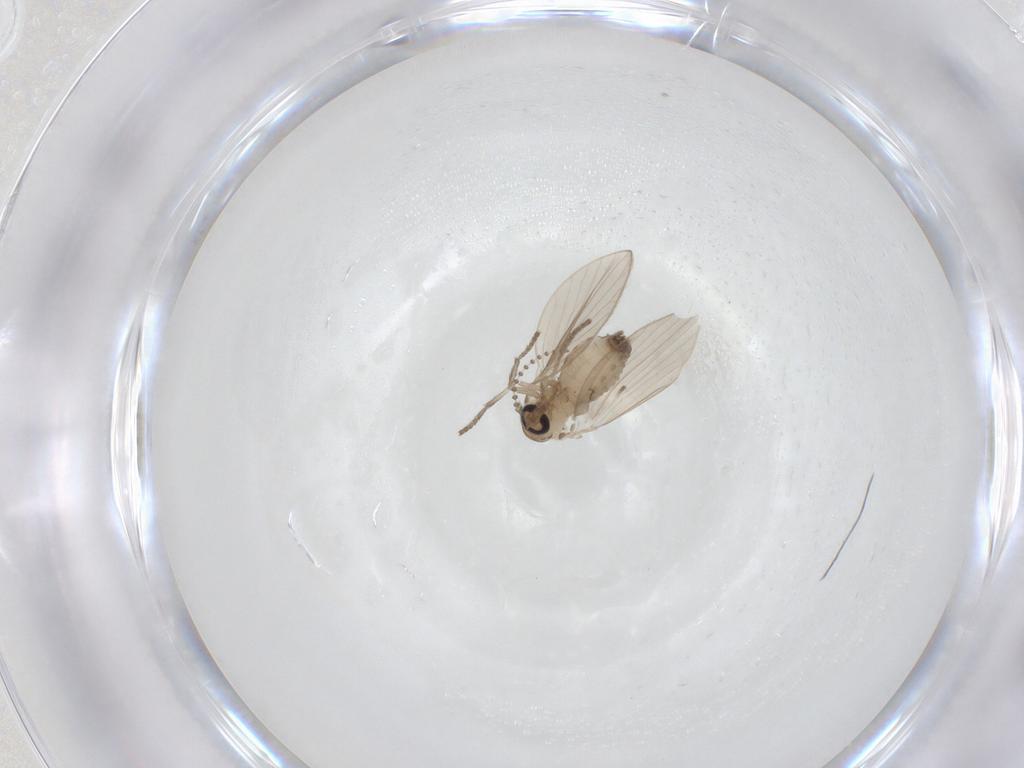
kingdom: Animalia
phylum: Arthropoda
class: Insecta
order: Diptera
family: Psychodidae
